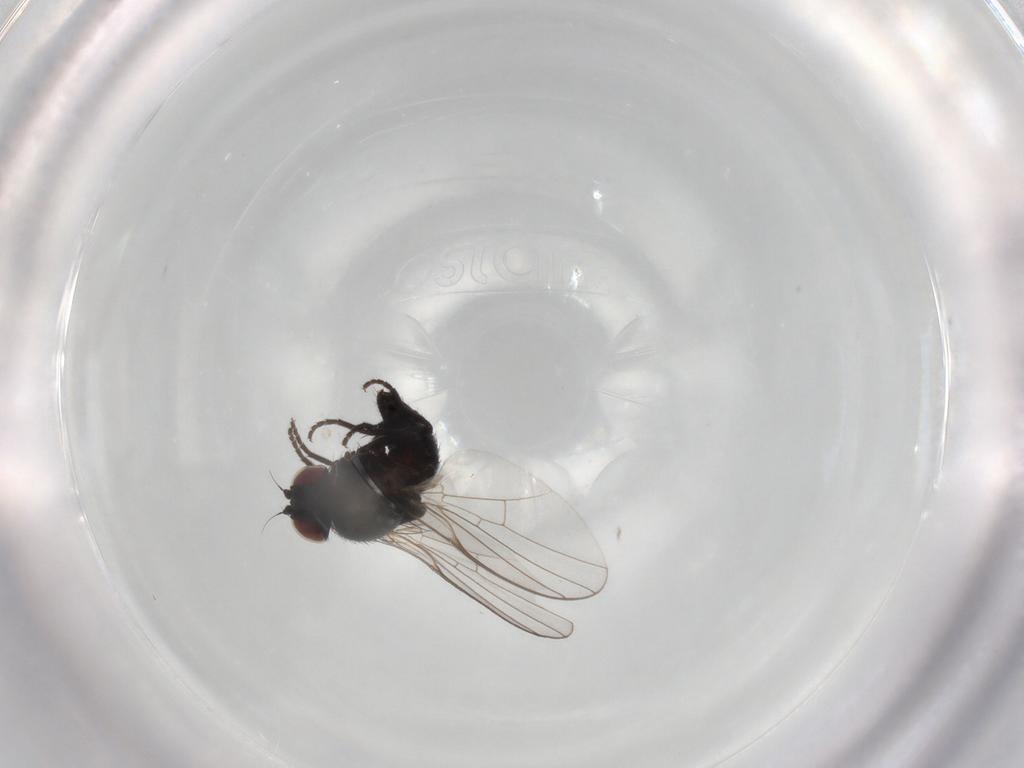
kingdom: Animalia
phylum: Arthropoda
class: Insecta
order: Diptera
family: Agromyzidae
